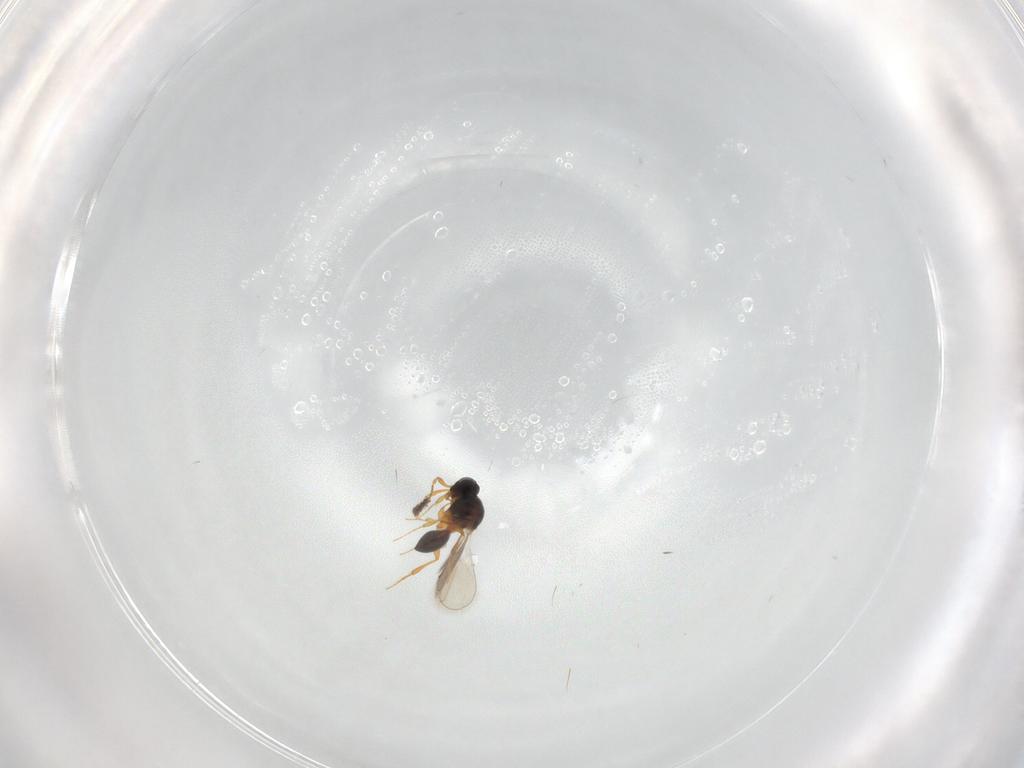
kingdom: Animalia
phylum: Arthropoda
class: Insecta
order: Hymenoptera
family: Platygastridae
